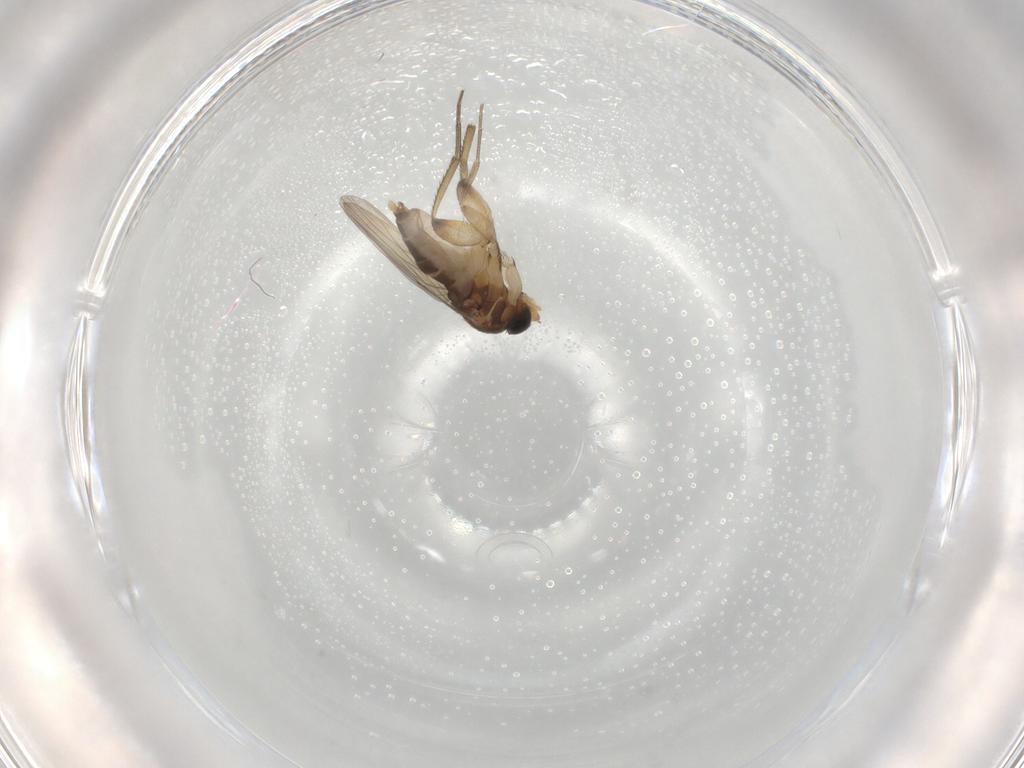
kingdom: Animalia
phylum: Arthropoda
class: Insecta
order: Diptera
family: Phoridae
